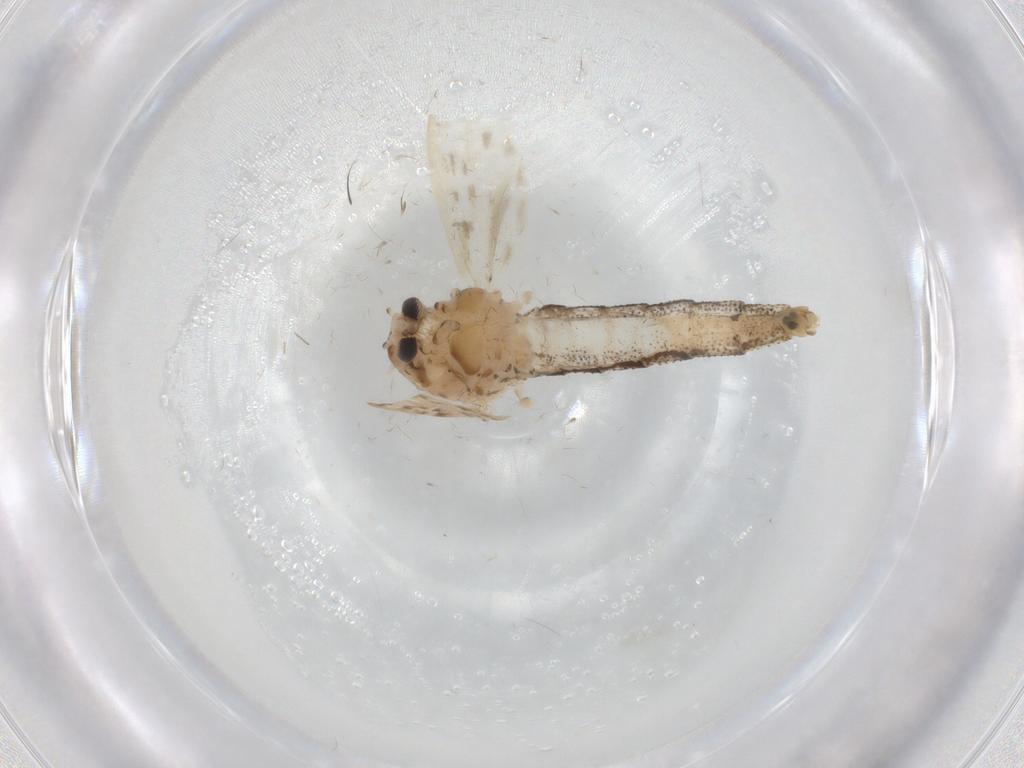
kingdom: Animalia
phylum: Arthropoda
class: Insecta
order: Diptera
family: Chaoboridae
